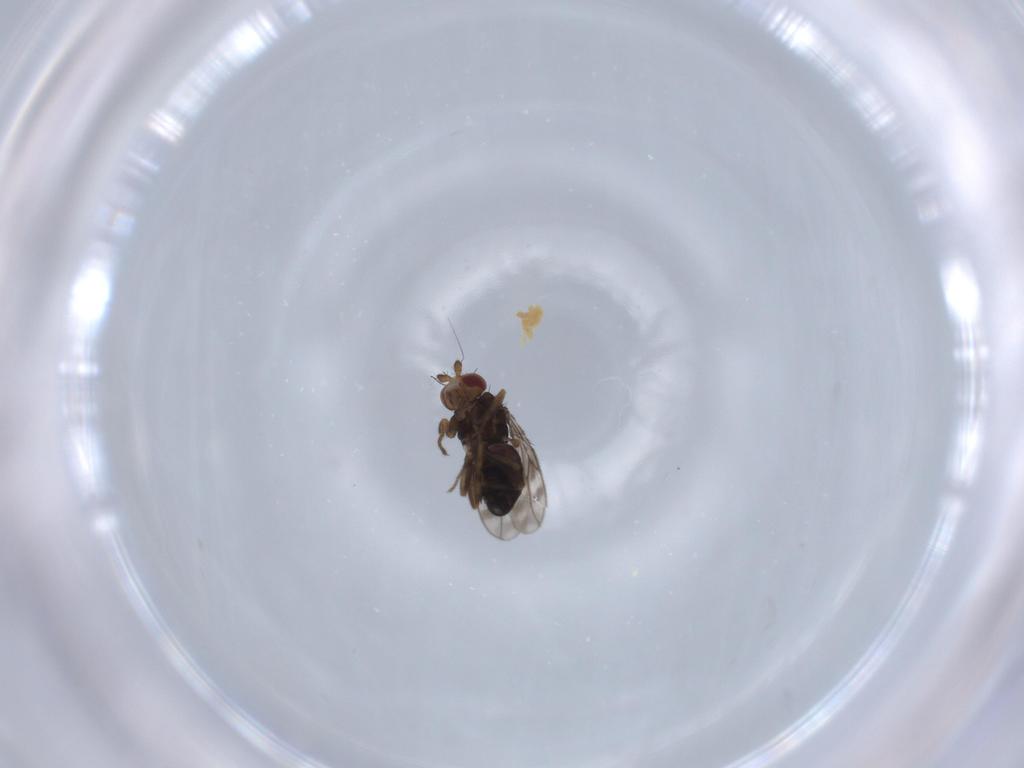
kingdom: Animalia
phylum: Arthropoda
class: Insecta
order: Diptera
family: Sphaeroceridae
